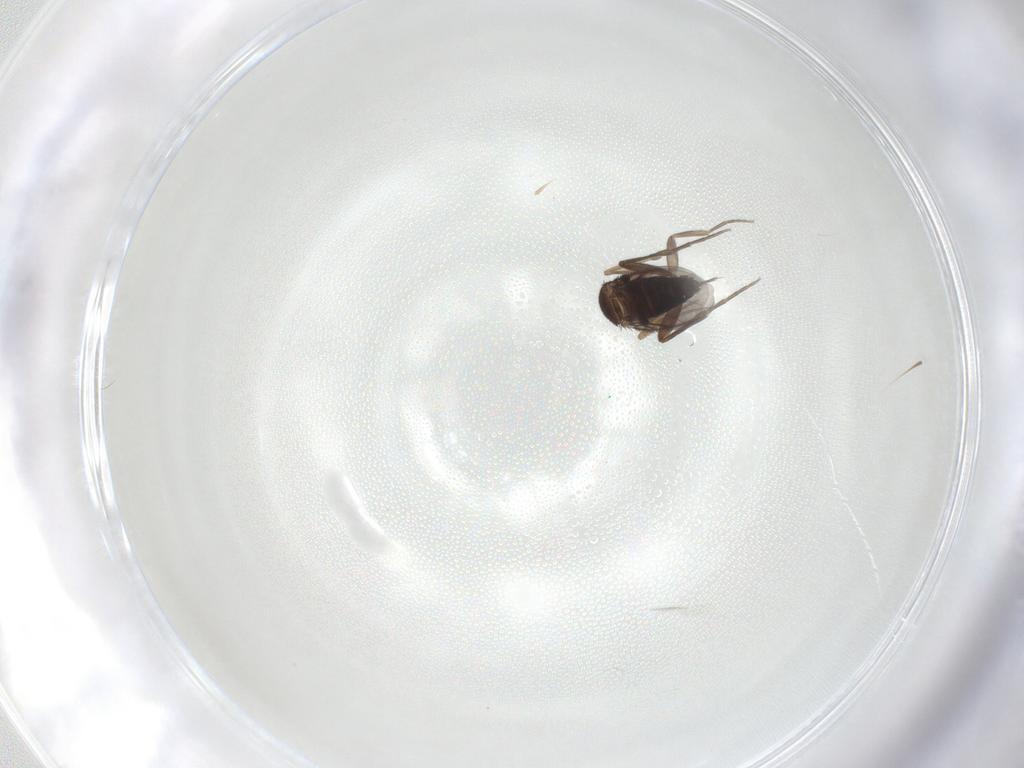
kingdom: Animalia
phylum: Arthropoda
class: Insecta
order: Diptera
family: Phoridae
